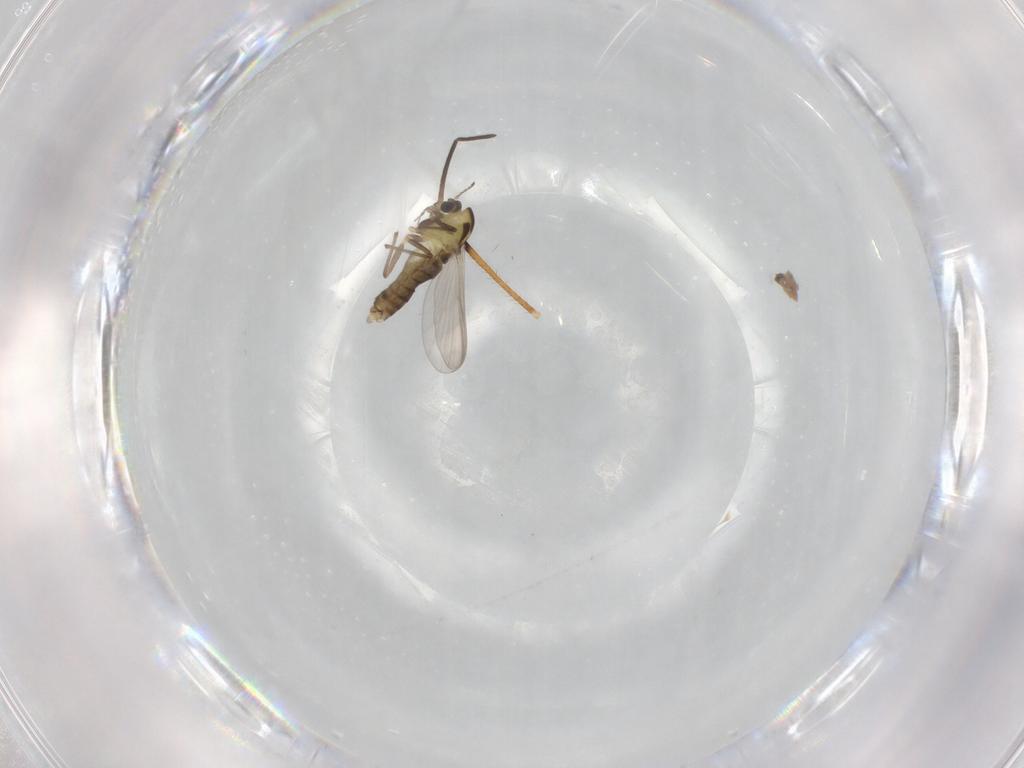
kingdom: Animalia
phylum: Arthropoda
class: Insecta
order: Diptera
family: Chironomidae
